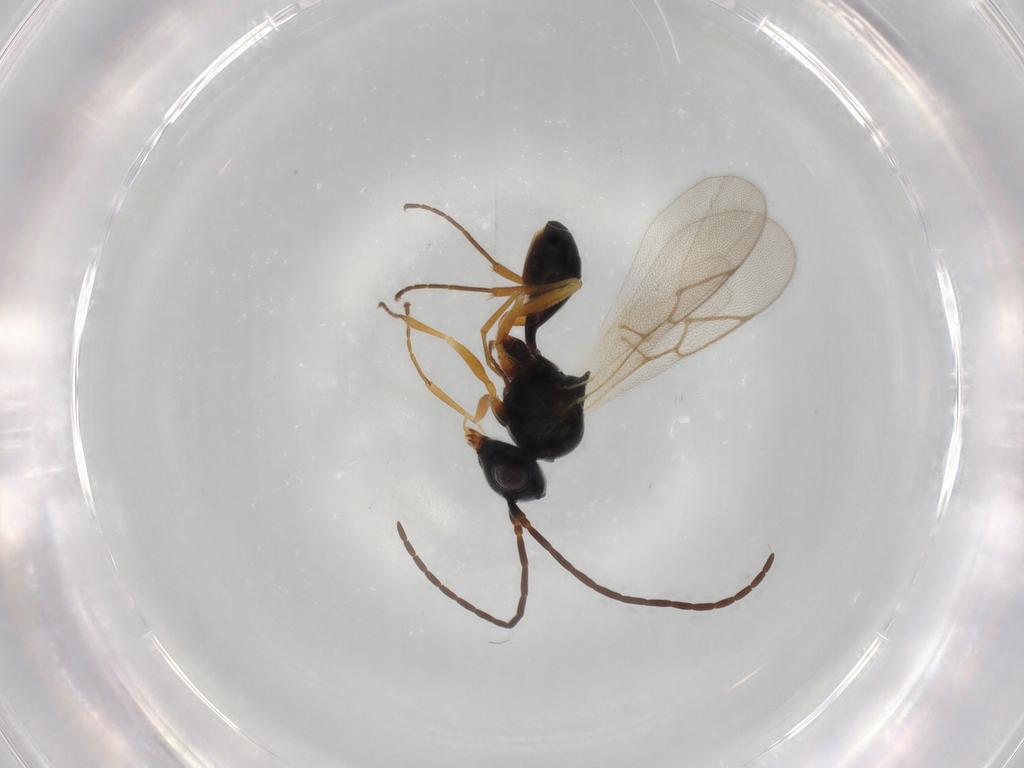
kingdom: Animalia
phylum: Arthropoda
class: Insecta
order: Hymenoptera
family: Figitidae
